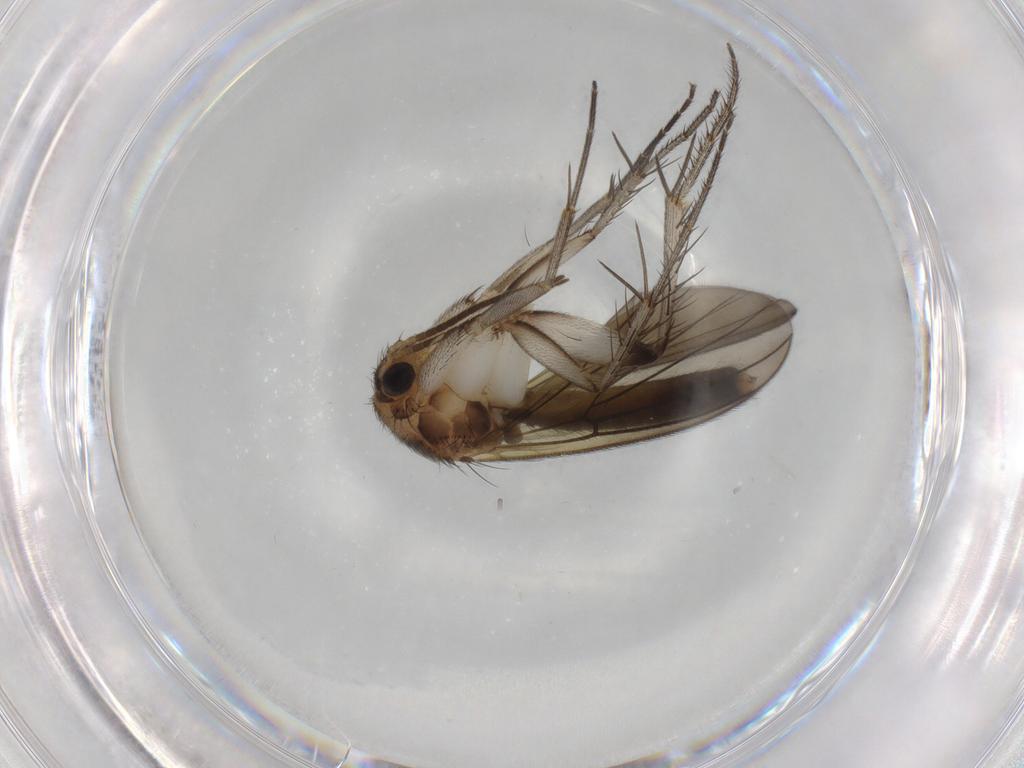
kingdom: Animalia
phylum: Arthropoda
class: Insecta
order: Diptera
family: Mycetophilidae
